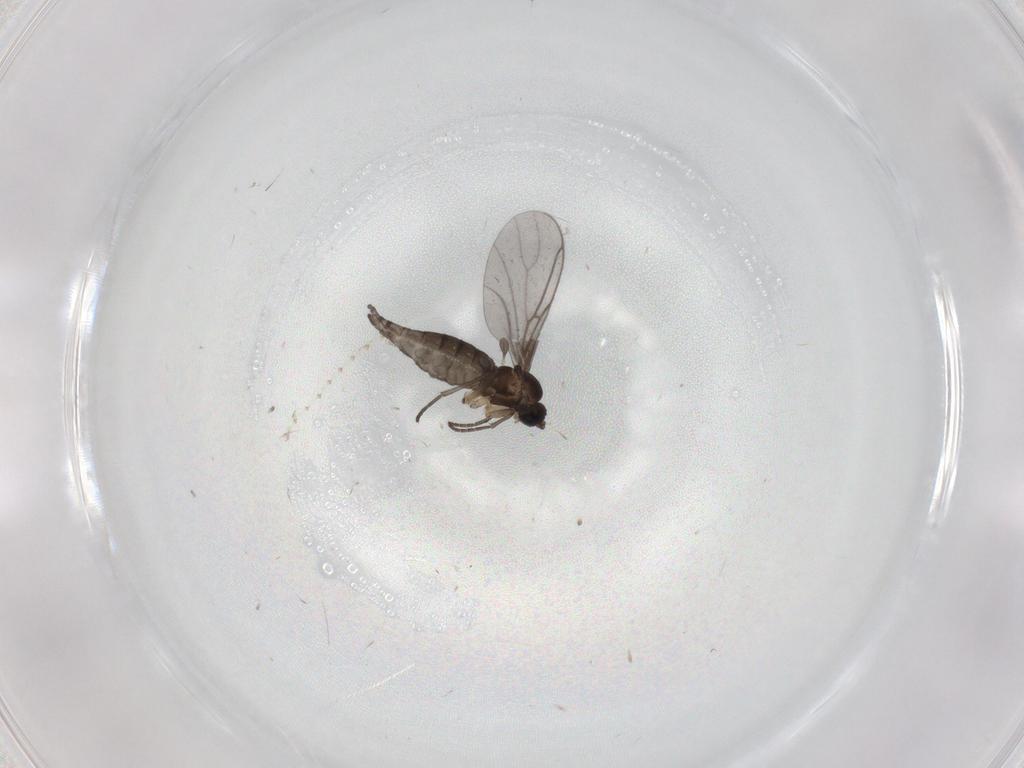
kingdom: Animalia
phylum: Arthropoda
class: Insecta
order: Diptera
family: Sciaridae
